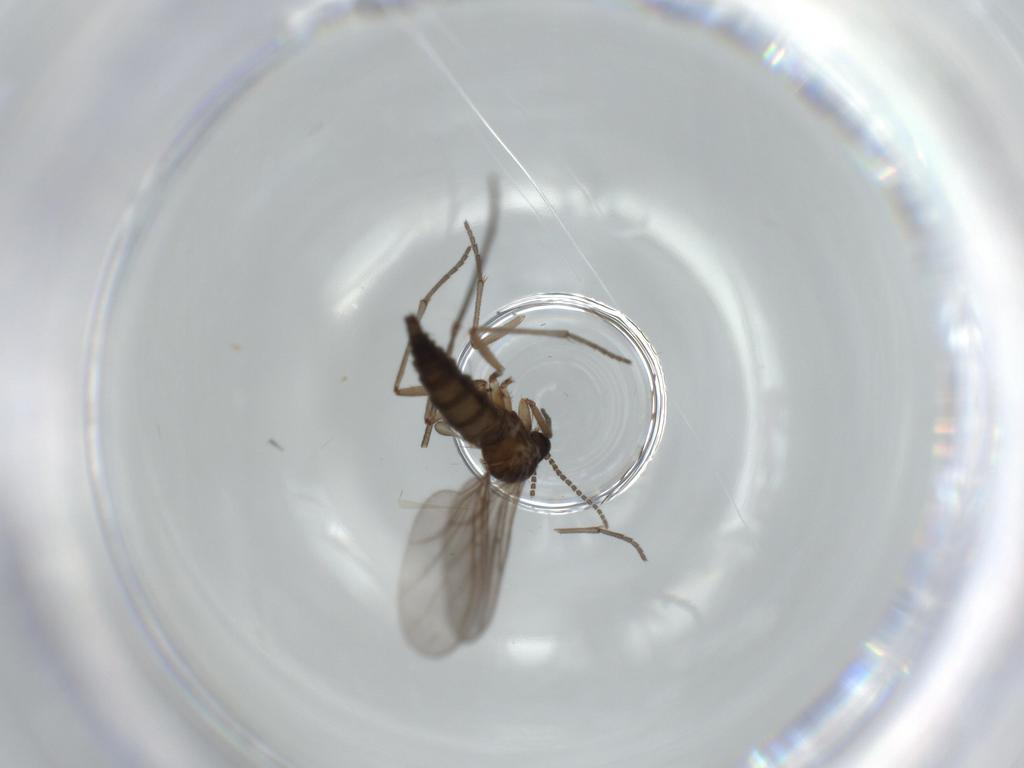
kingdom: Animalia
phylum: Arthropoda
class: Insecta
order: Diptera
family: Sciaridae
